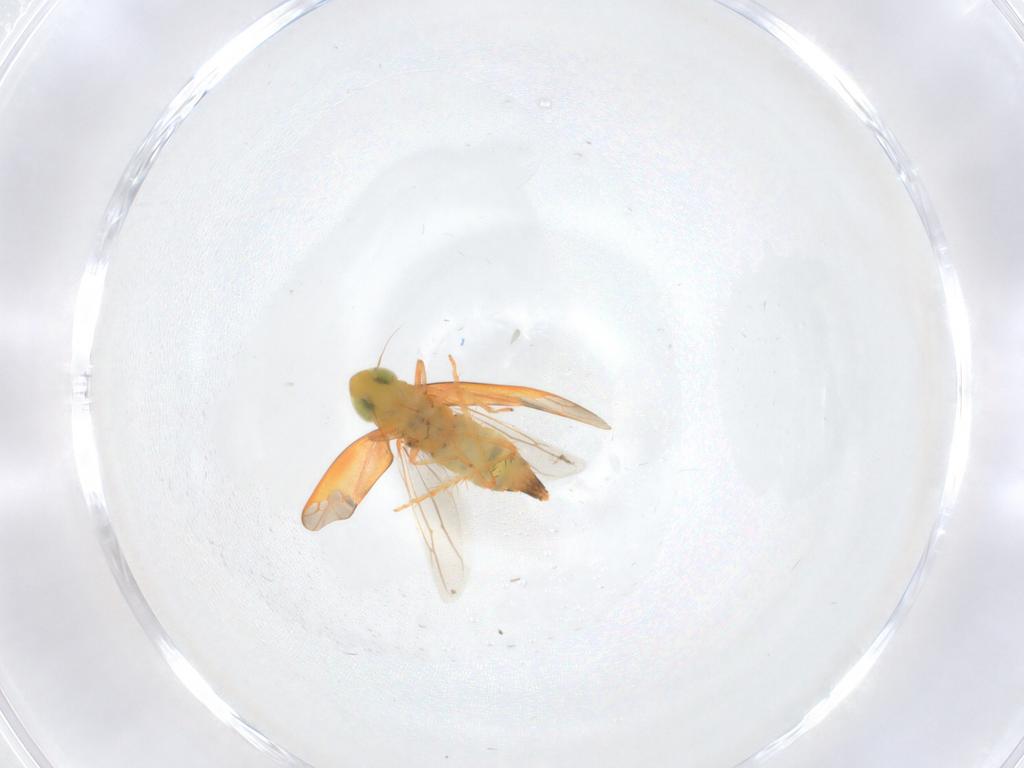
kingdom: Animalia
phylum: Arthropoda
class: Insecta
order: Hemiptera
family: Cicadellidae
